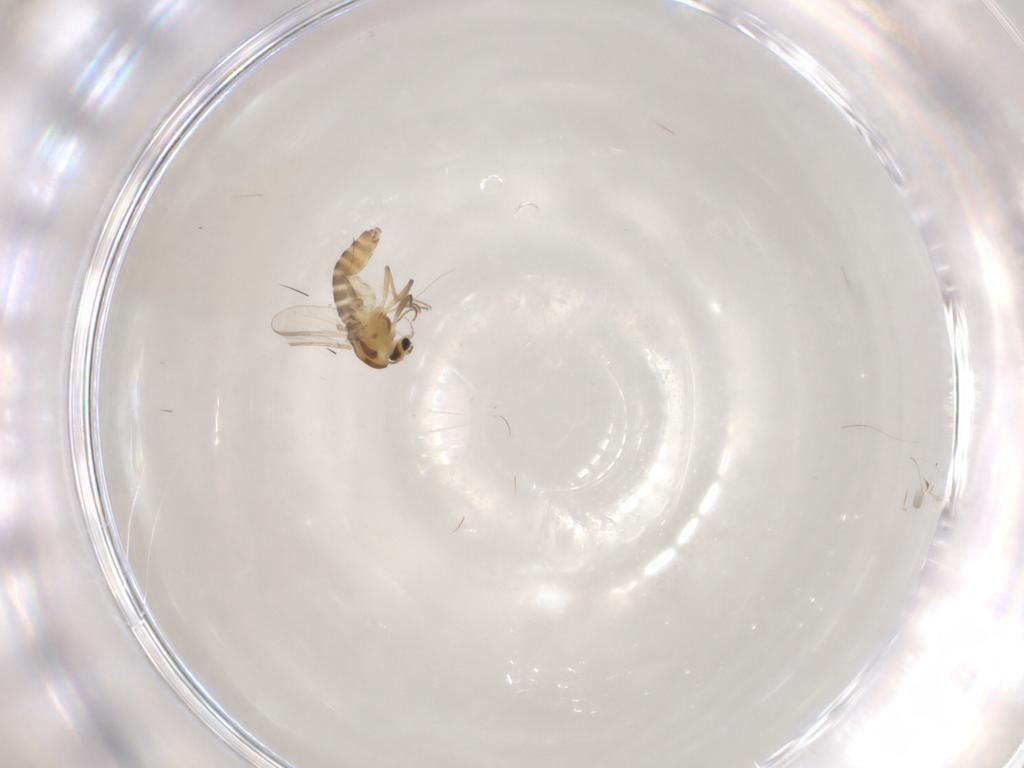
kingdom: Animalia
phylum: Arthropoda
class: Insecta
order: Diptera
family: Chironomidae
